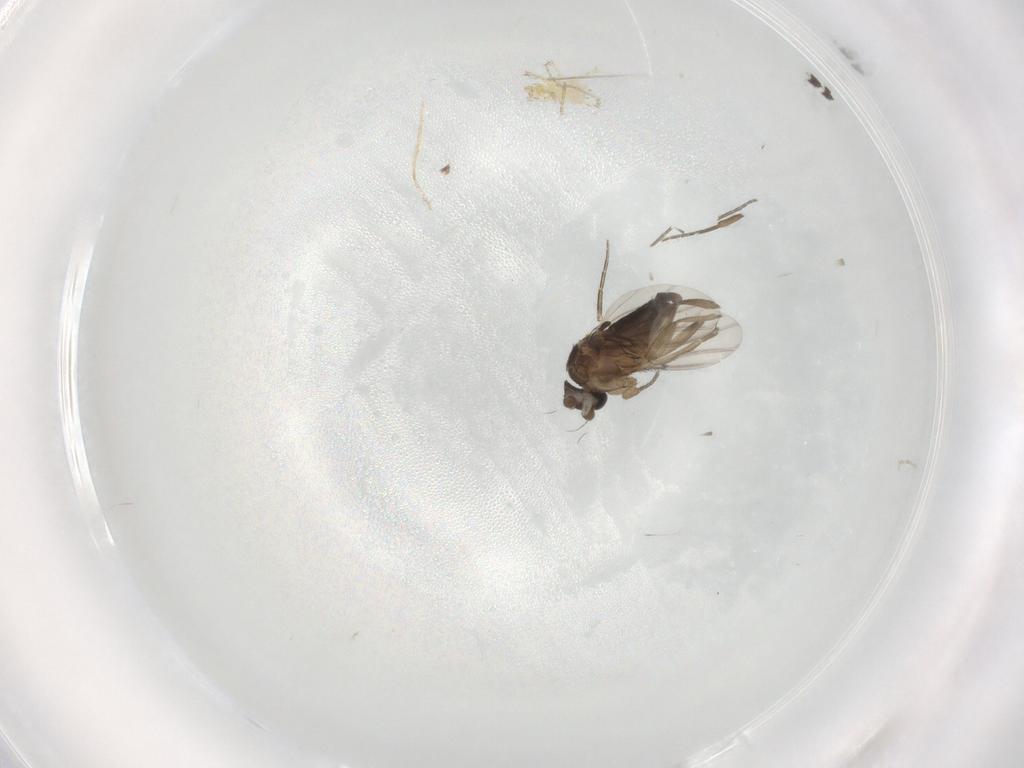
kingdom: Animalia
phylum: Arthropoda
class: Insecta
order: Diptera
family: Phoridae
